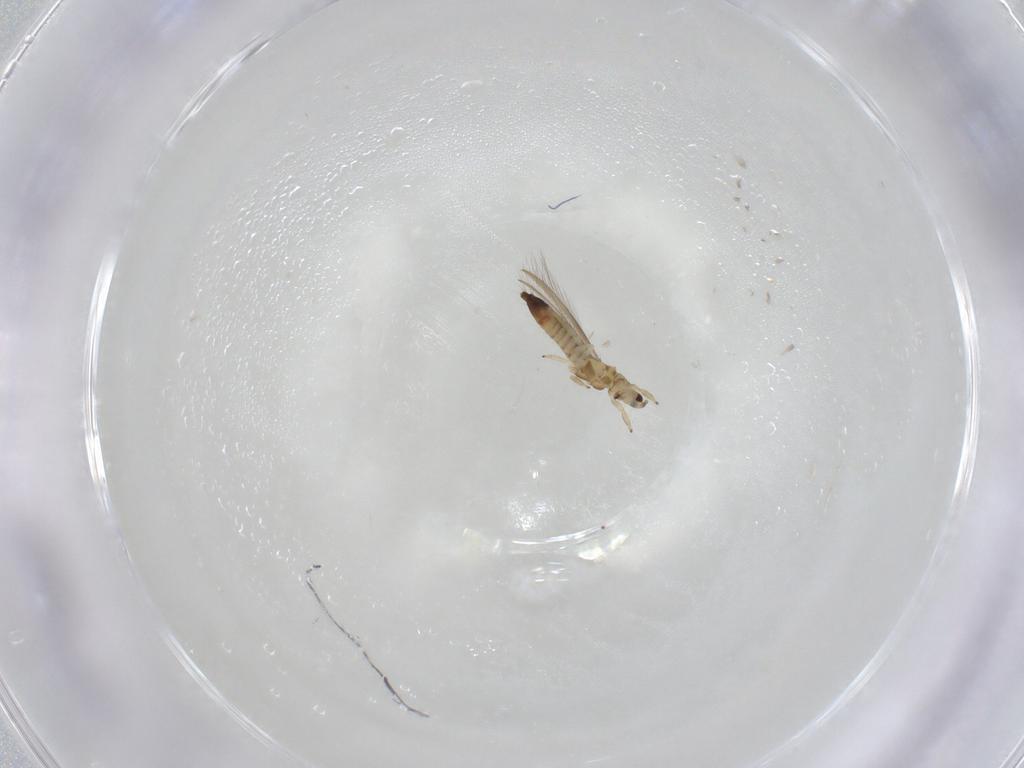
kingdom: Animalia
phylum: Arthropoda
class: Insecta
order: Thysanoptera
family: Thripidae
